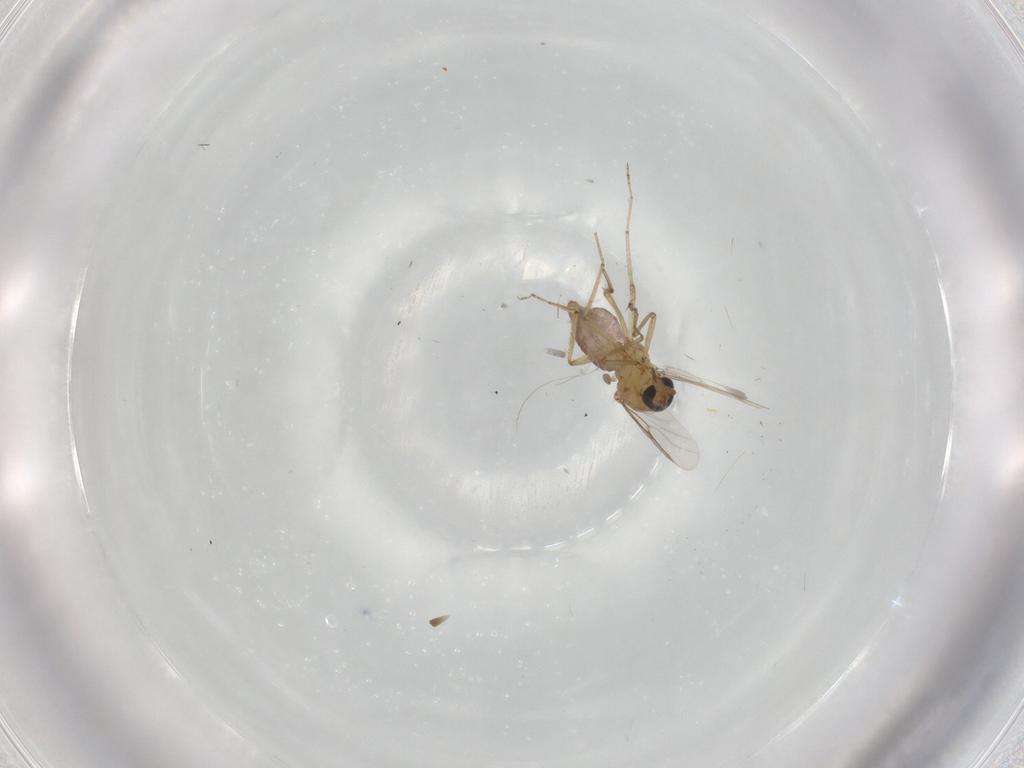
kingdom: Animalia
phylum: Arthropoda
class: Insecta
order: Diptera
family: Ceratopogonidae
